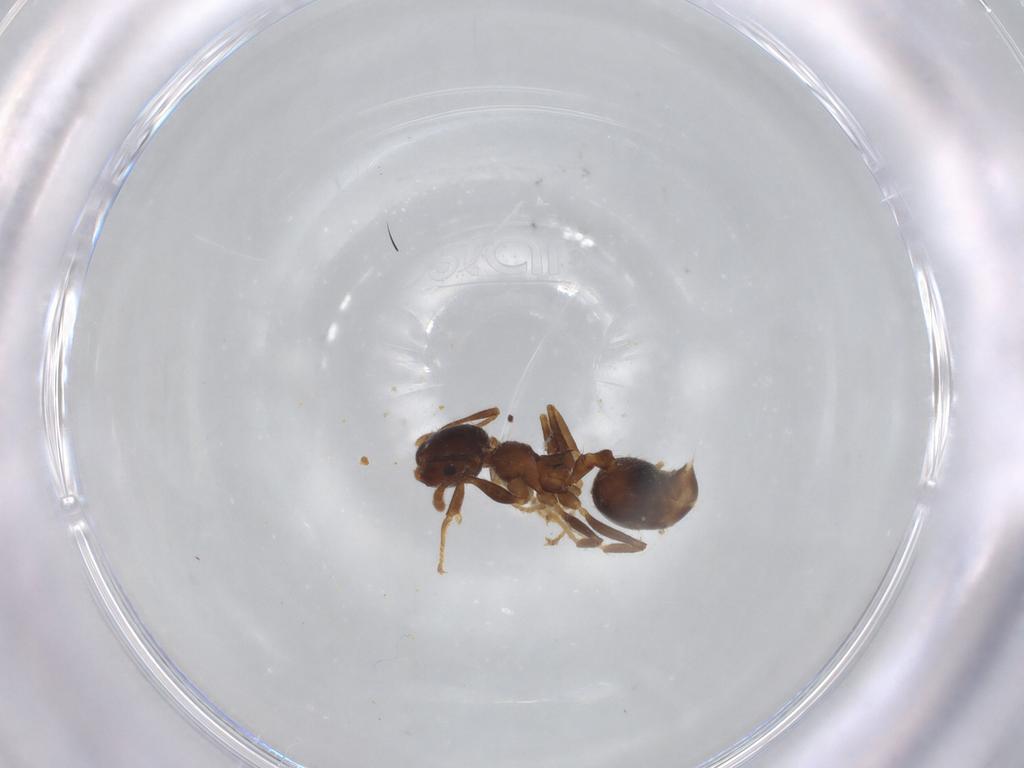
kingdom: Animalia
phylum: Arthropoda
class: Insecta
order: Hymenoptera
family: Formicidae
